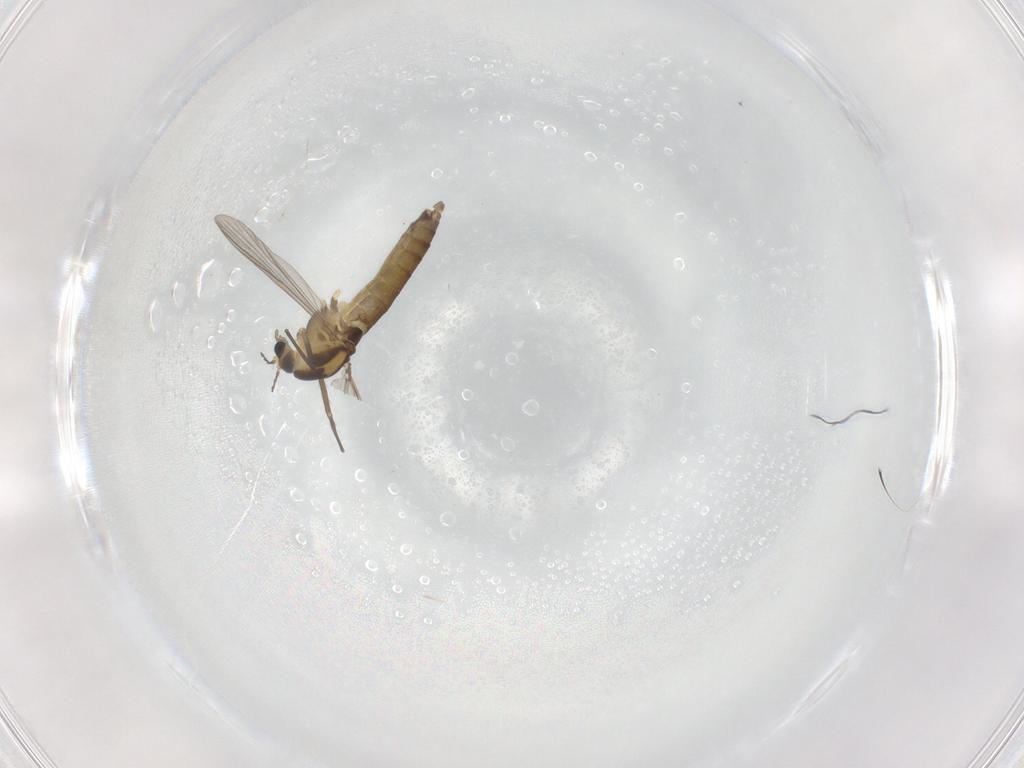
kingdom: Animalia
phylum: Arthropoda
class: Insecta
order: Diptera
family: Chironomidae
